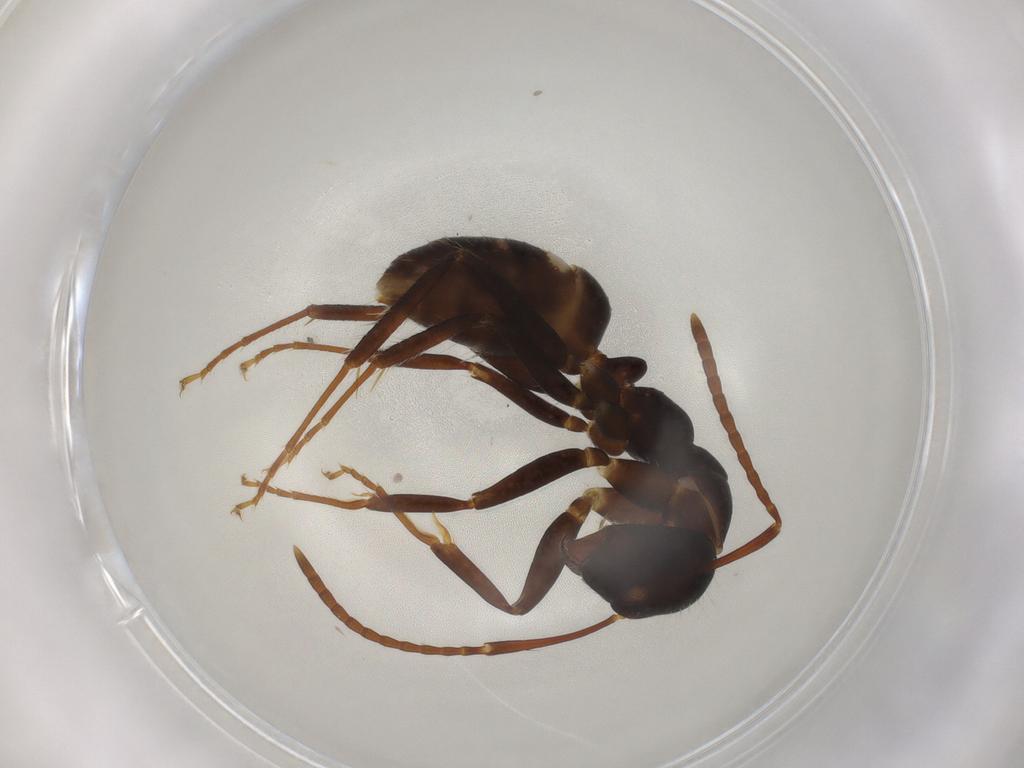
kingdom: Animalia
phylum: Arthropoda
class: Insecta
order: Hymenoptera
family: Formicidae
